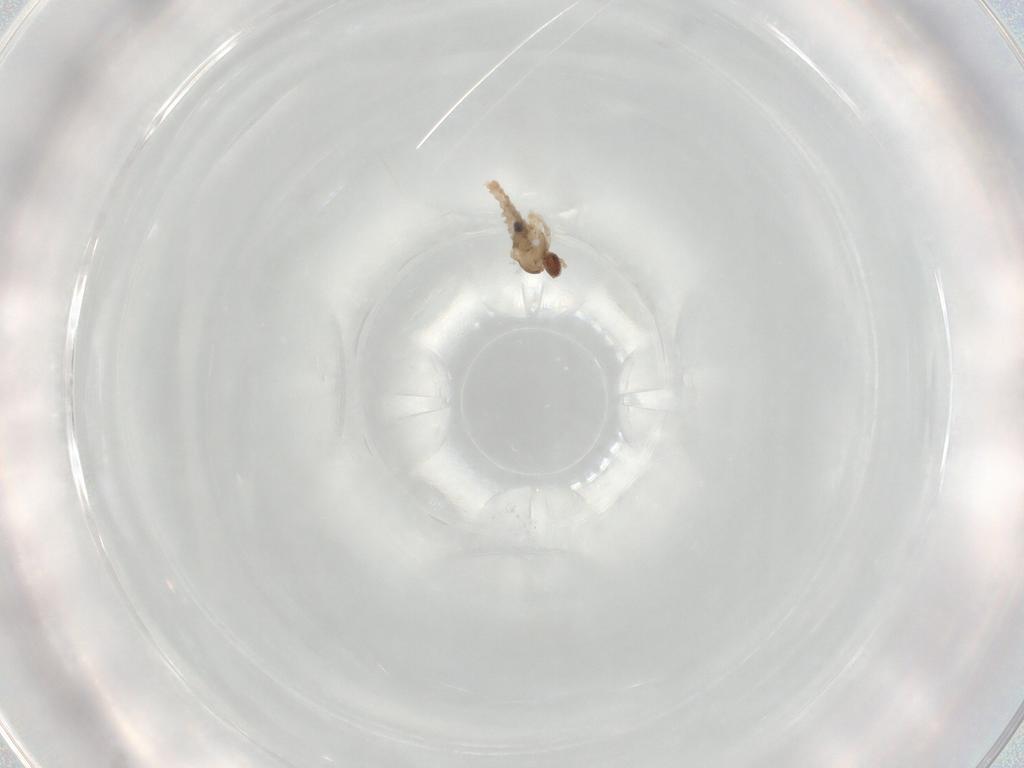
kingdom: Animalia
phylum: Arthropoda
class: Insecta
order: Diptera
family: Cecidomyiidae
